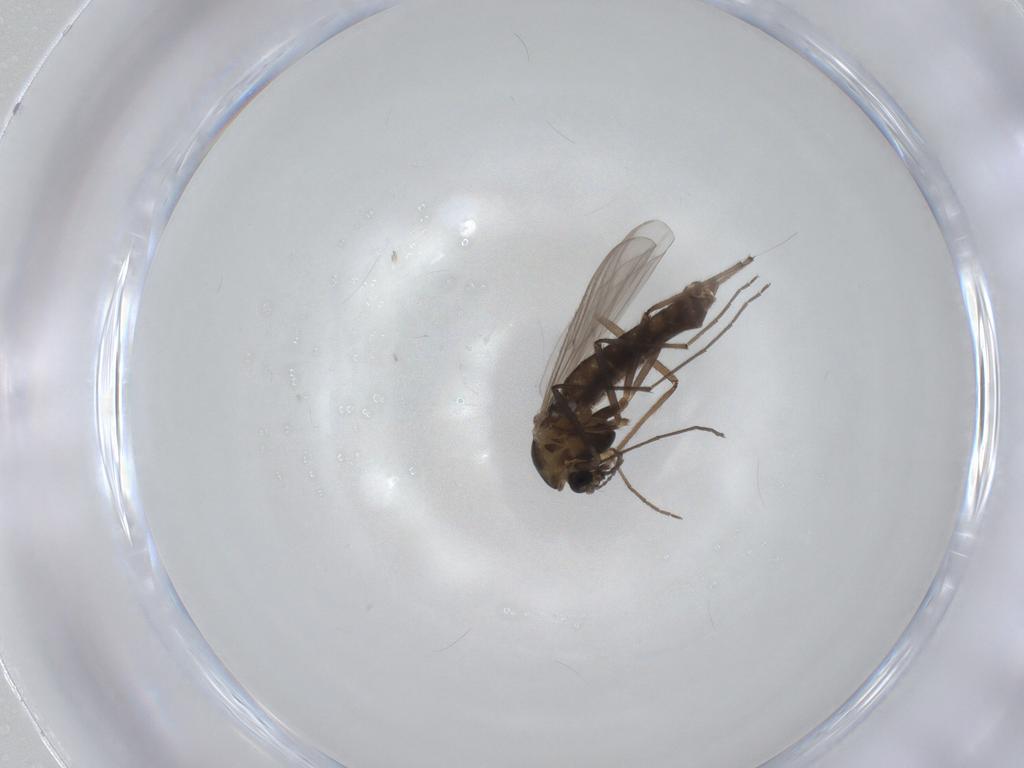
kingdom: Animalia
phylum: Arthropoda
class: Insecta
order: Diptera
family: Chironomidae
